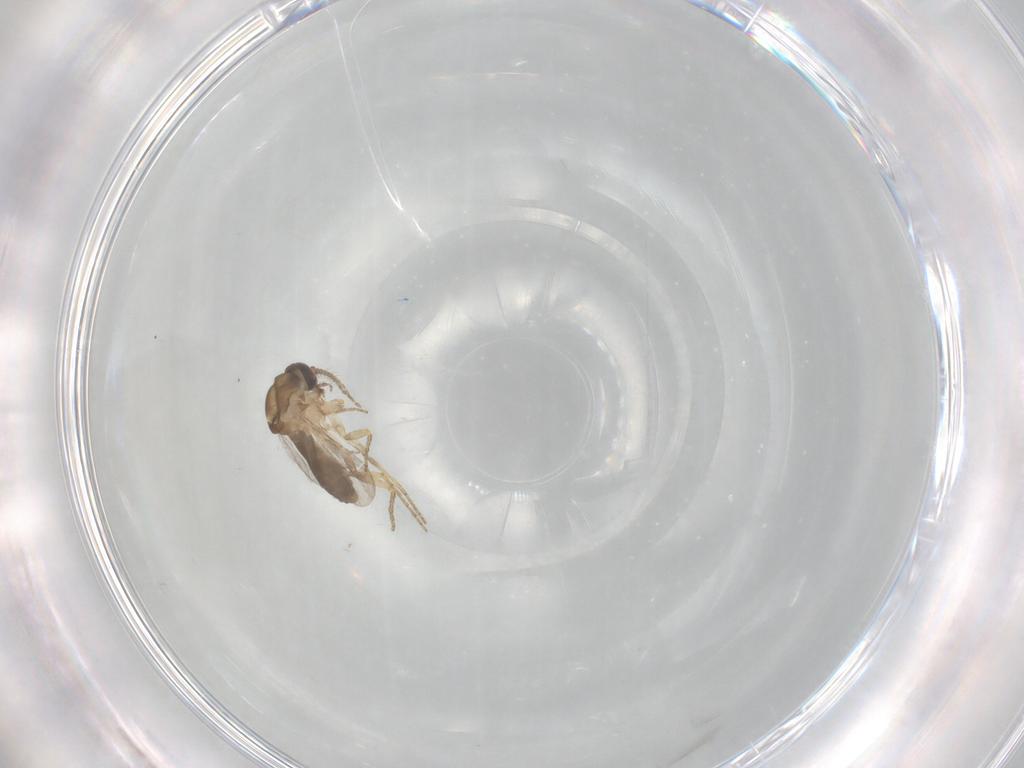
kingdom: Animalia
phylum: Arthropoda
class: Insecta
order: Diptera
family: Ceratopogonidae
